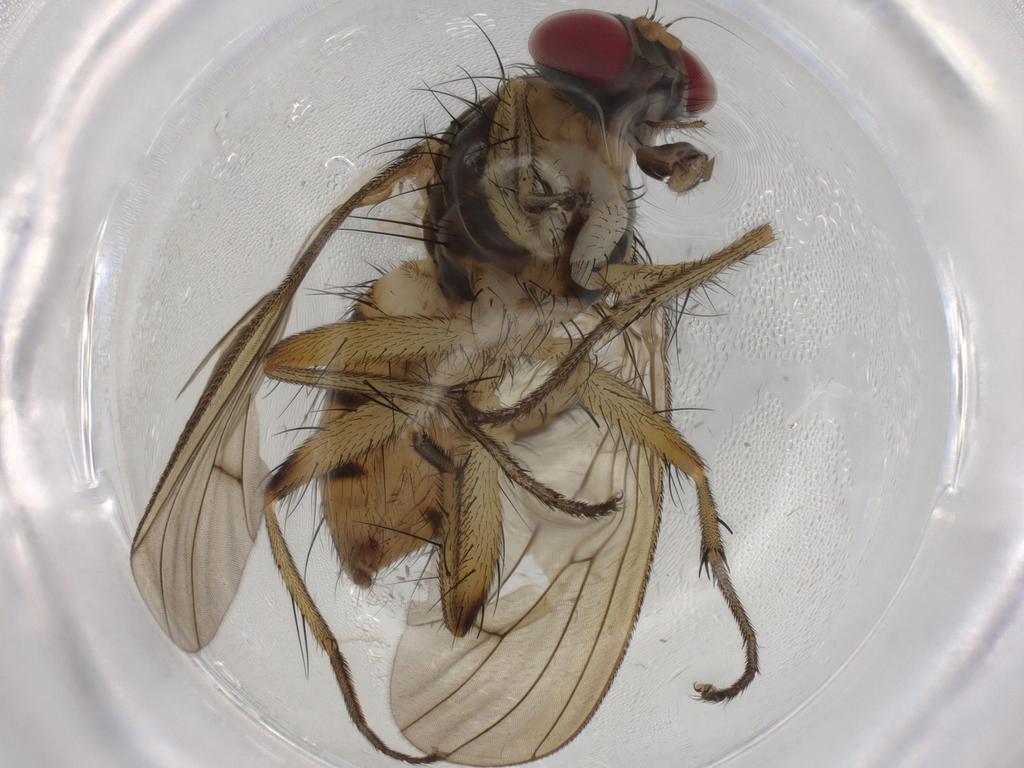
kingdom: Animalia
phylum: Arthropoda
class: Insecta
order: Diptera
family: Muscidae
